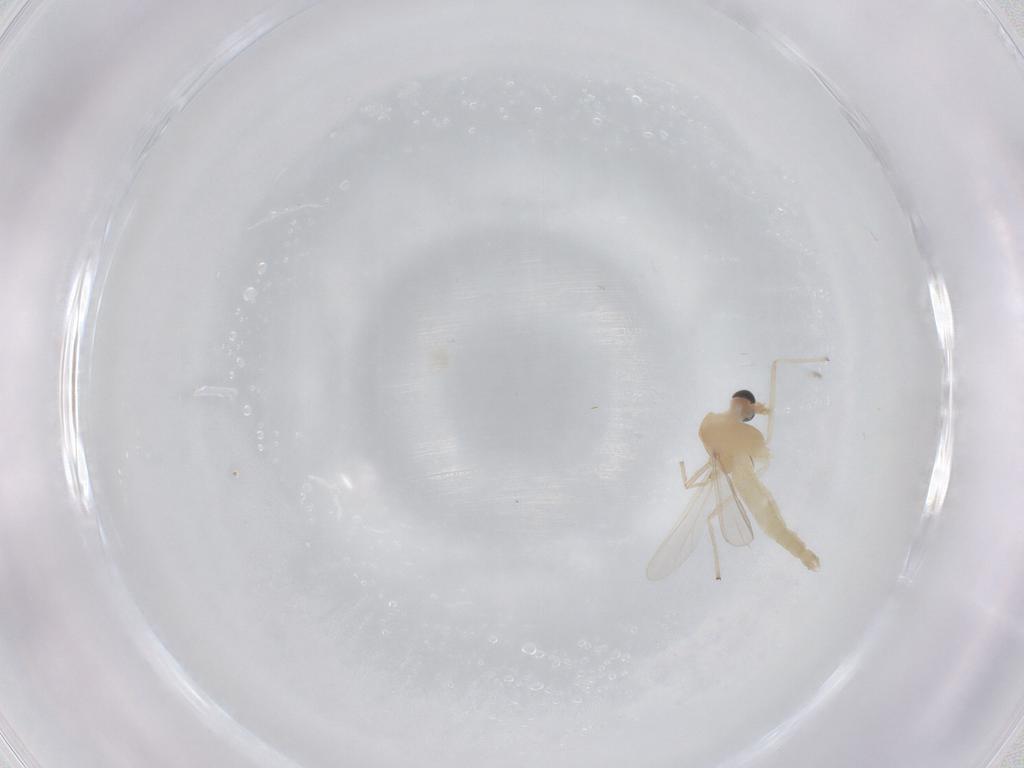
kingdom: Animalia
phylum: Arthropoda
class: Insecta
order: Diptera
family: Chironomidae
